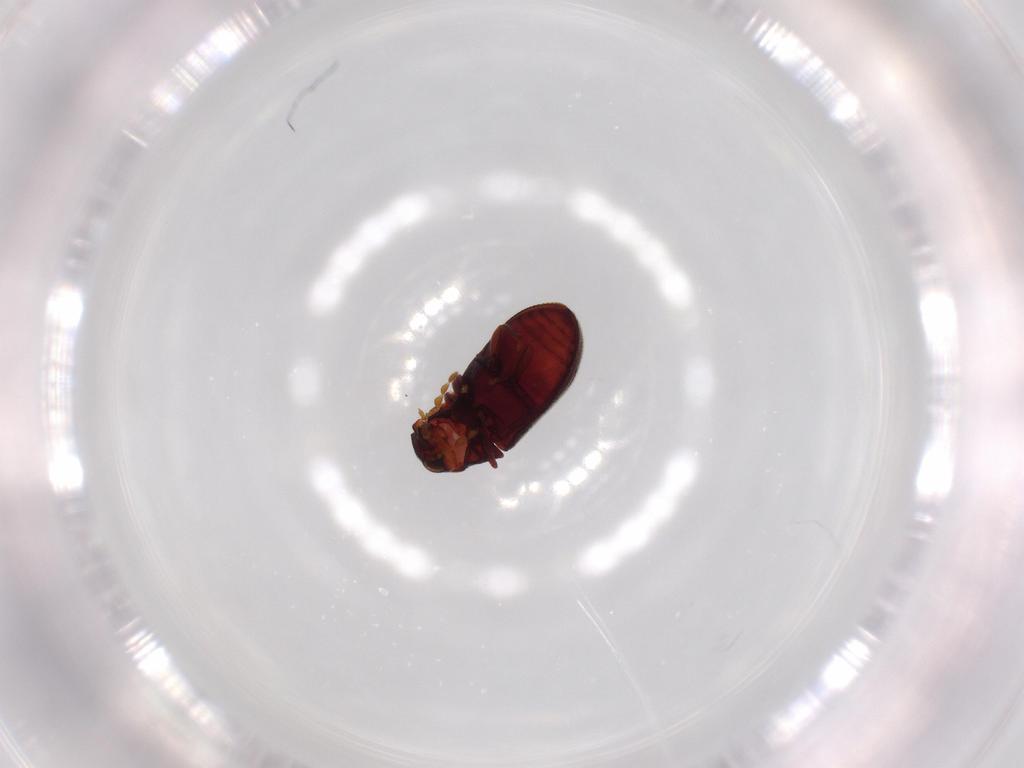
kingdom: Animalia
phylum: Arthropoda
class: Insecta
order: Coleoptera
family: Anobiidae
